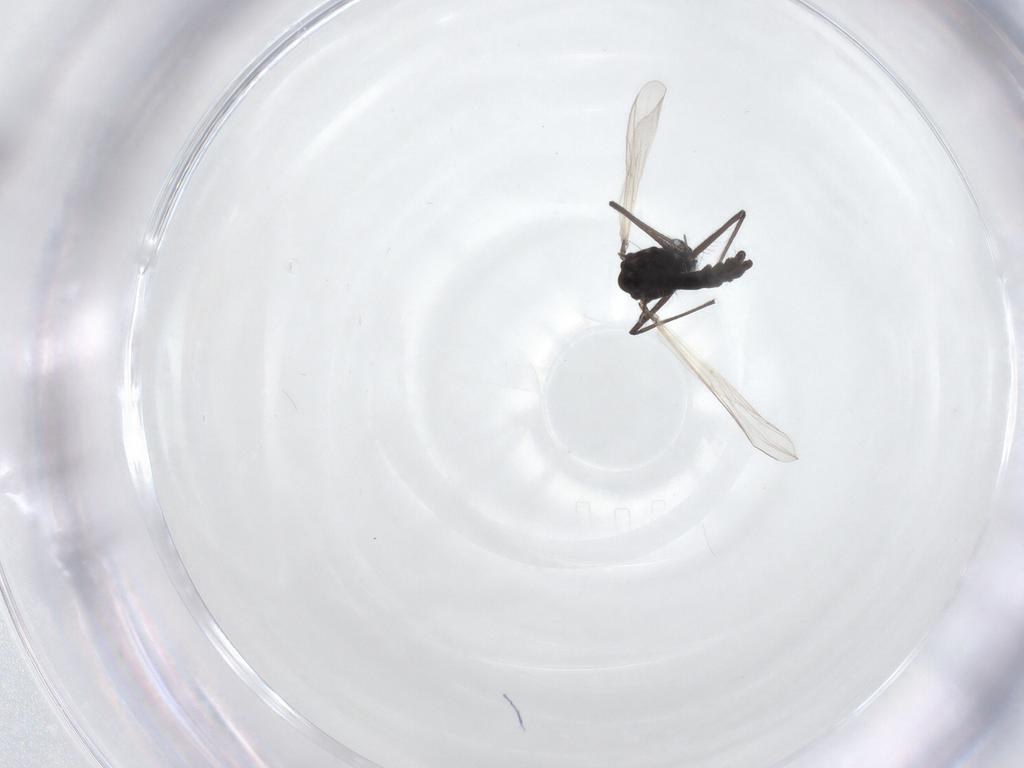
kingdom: Animalia
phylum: Arthropoda
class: Insecta
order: Diptera
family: Chironomidae
